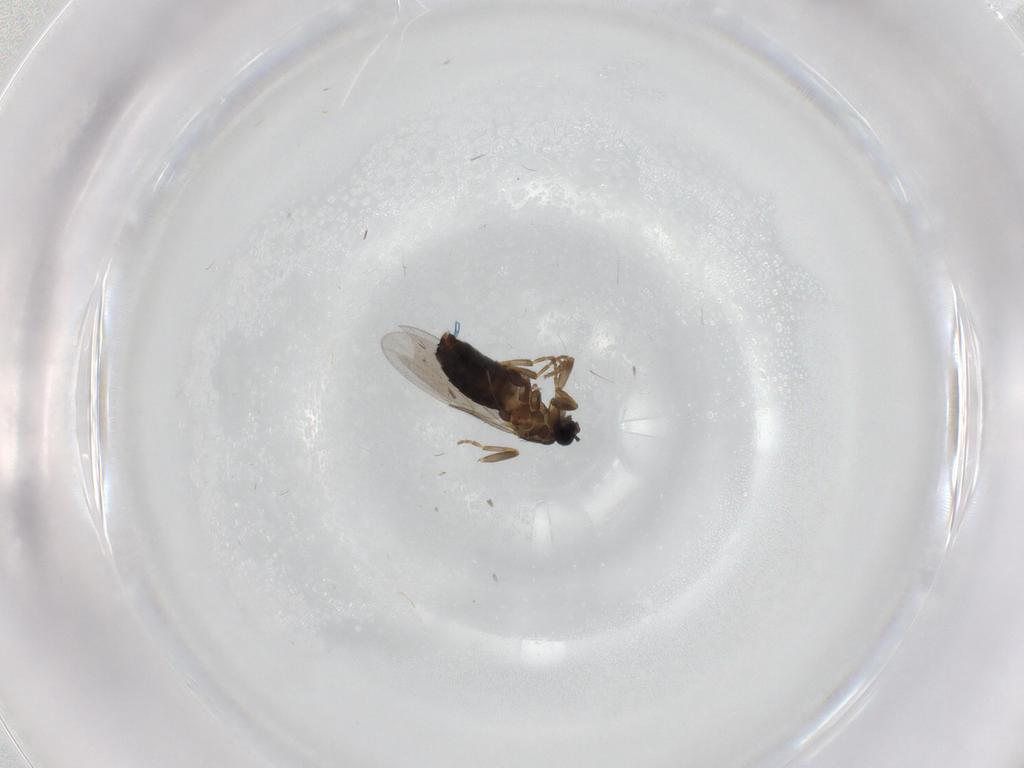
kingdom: Animalia
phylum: Arthropoda
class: Insecta
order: Diptera
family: Scatopsidae
